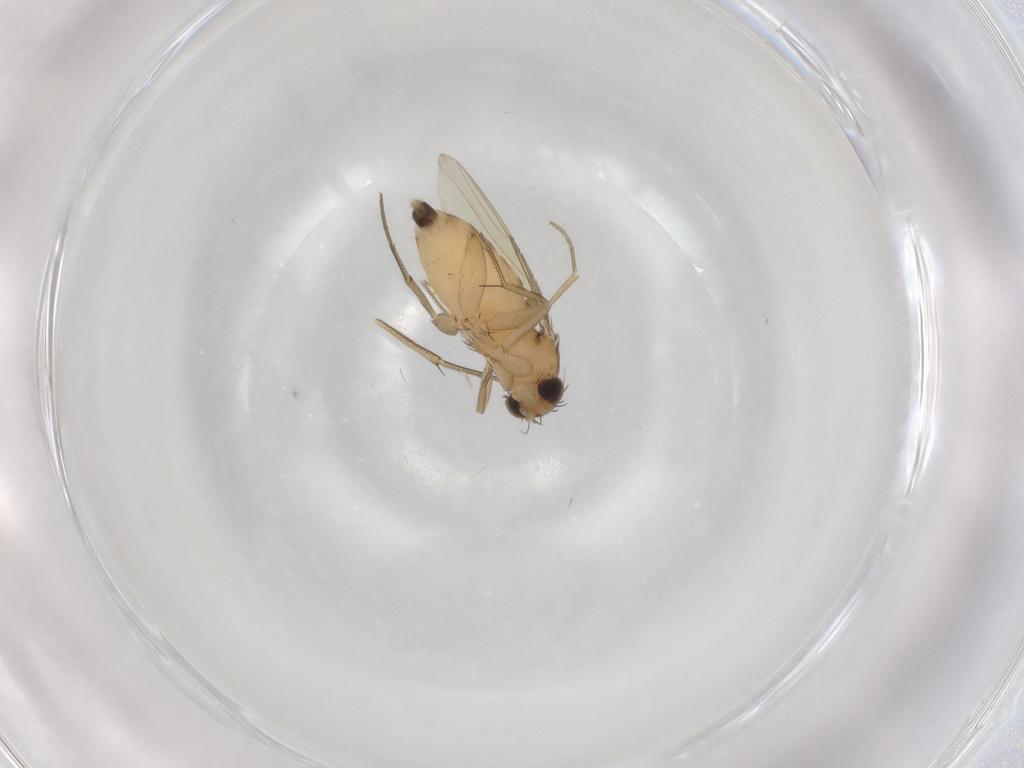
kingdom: Animalia
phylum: Arthropoda
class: Insecta
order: Diptera
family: Phoridae
